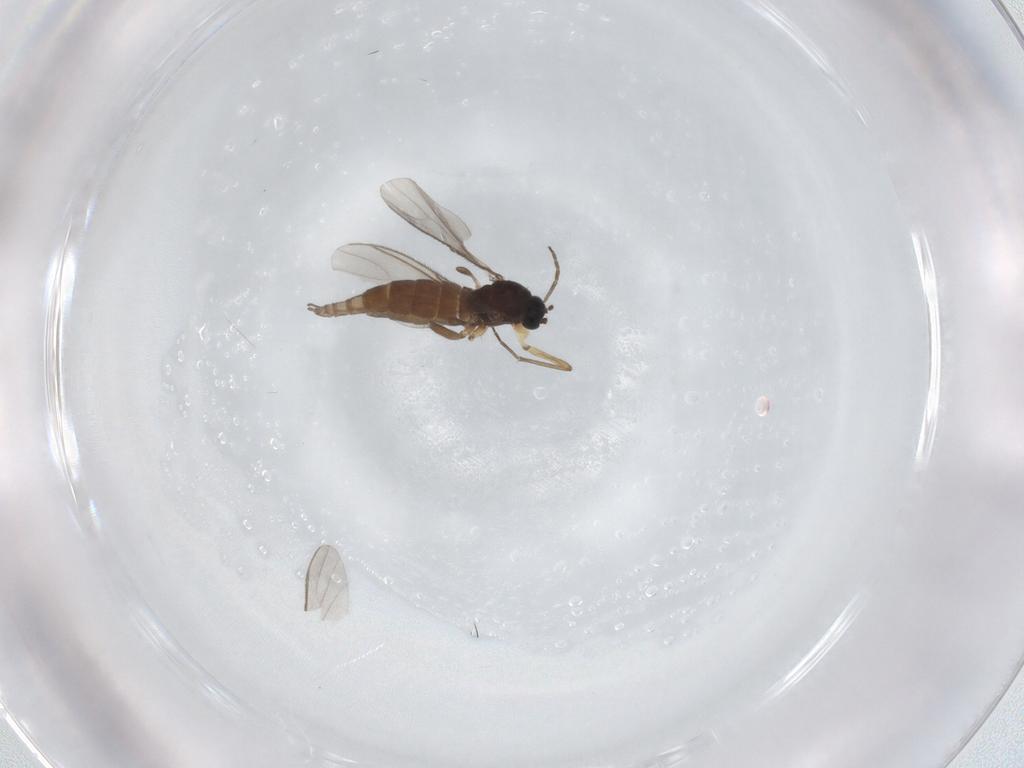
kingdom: Animalia
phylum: Arthropoda
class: Insecta
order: Diptera
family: Sciaridae
